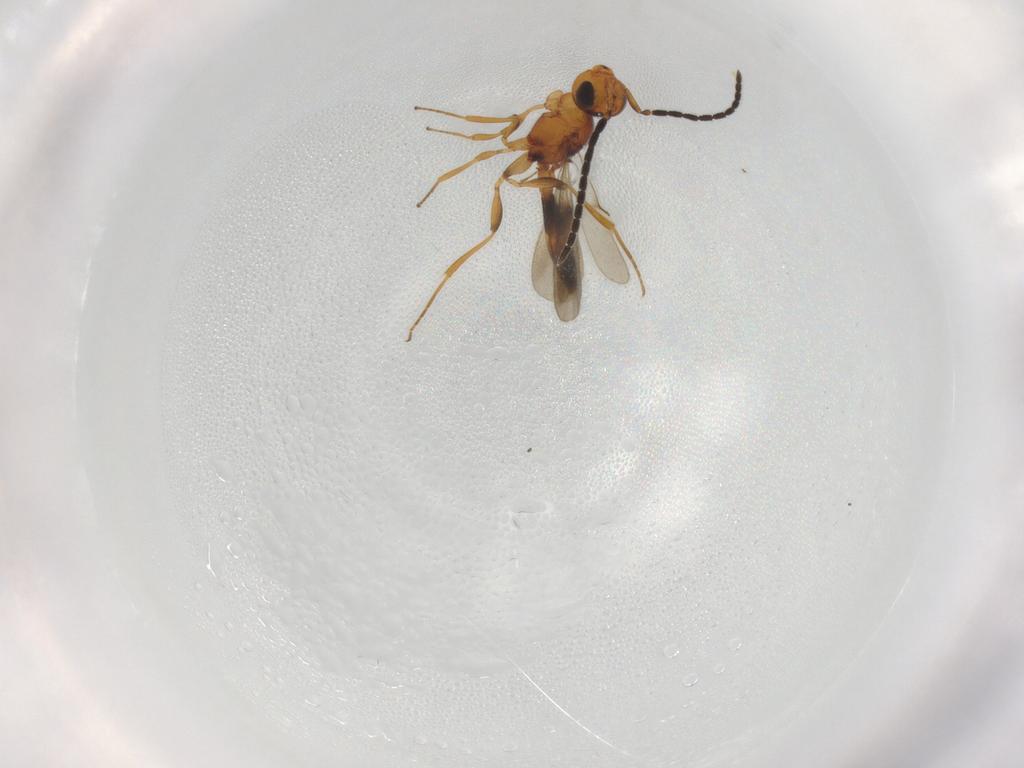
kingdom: Animalia
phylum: Arthropoda
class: Insecta
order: Hymenoptera
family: Scelionidae
